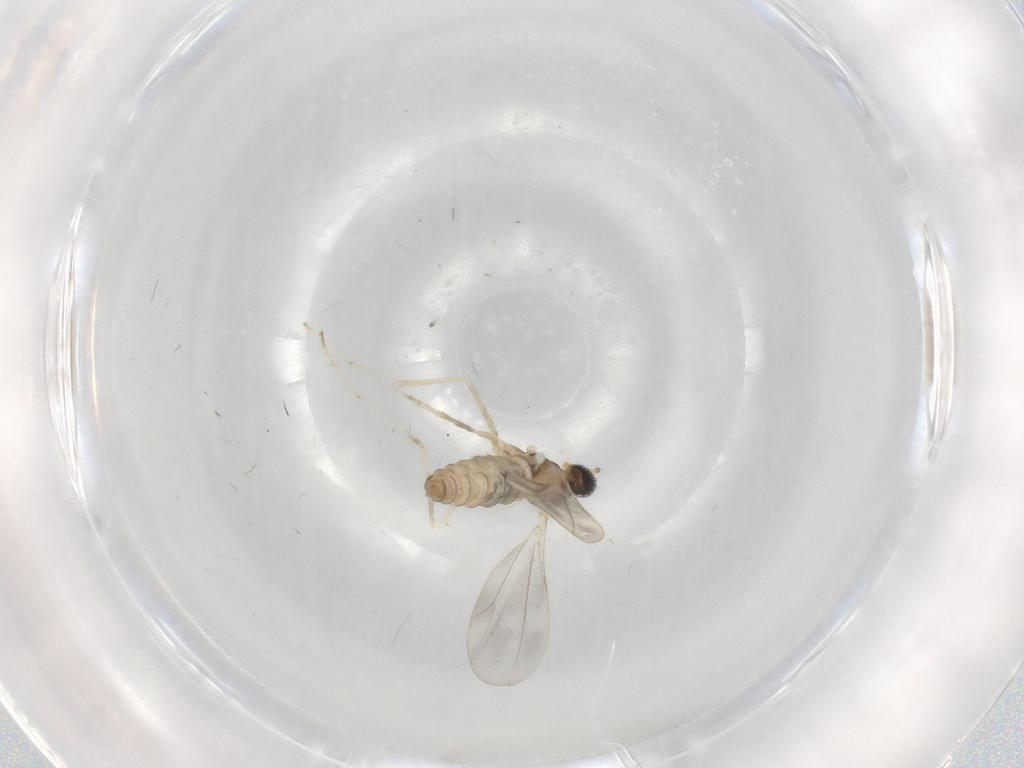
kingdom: Animalia
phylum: Arthropoda
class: Insecta
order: Diptera
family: Cecidomyiidae
